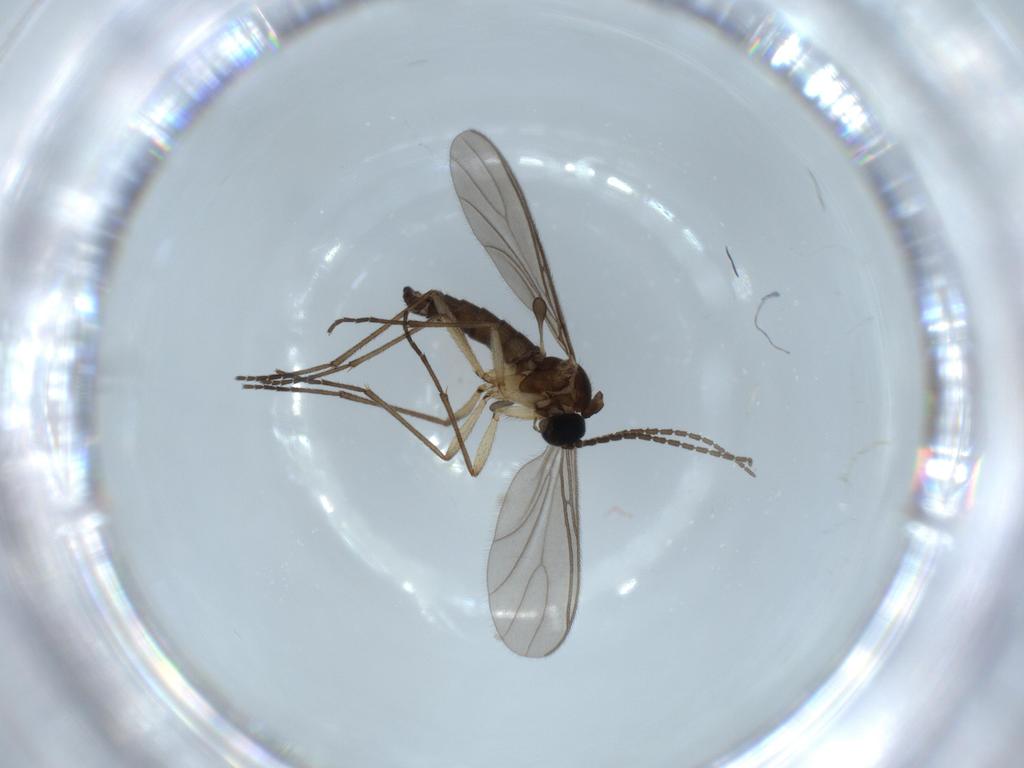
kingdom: Animalia
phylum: Arthropoda
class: Insecta
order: Diptera
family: Sciaridae
